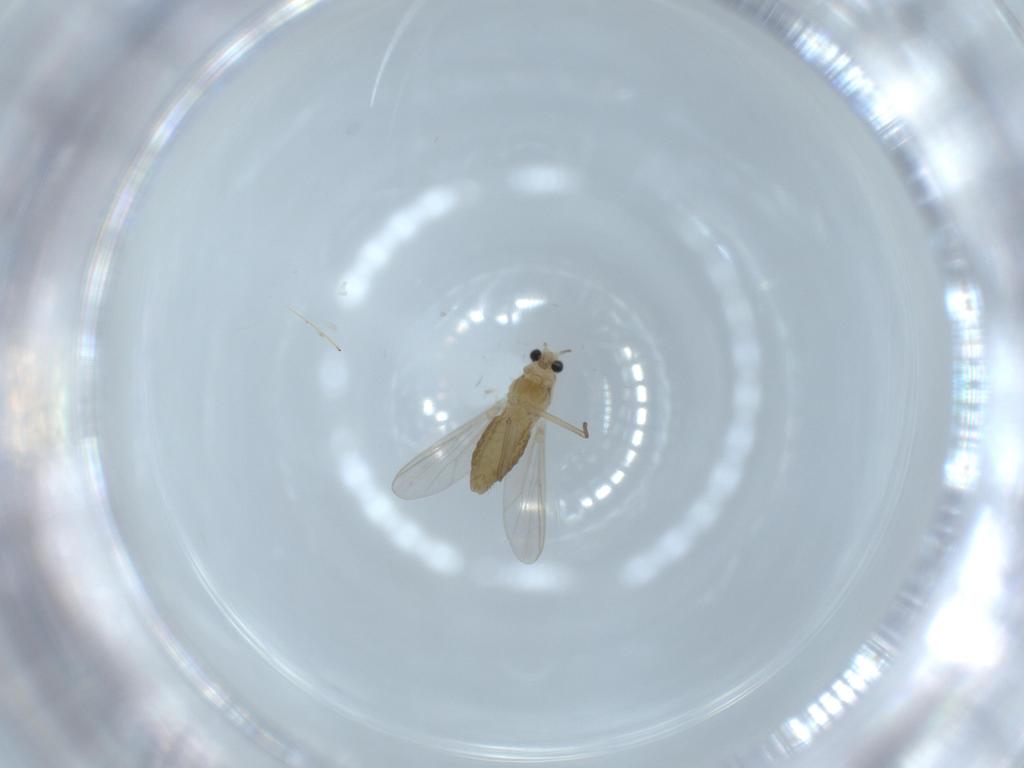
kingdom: Animalia
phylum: Arthropoda
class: Insecta
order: Diptera
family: Chironomidae
